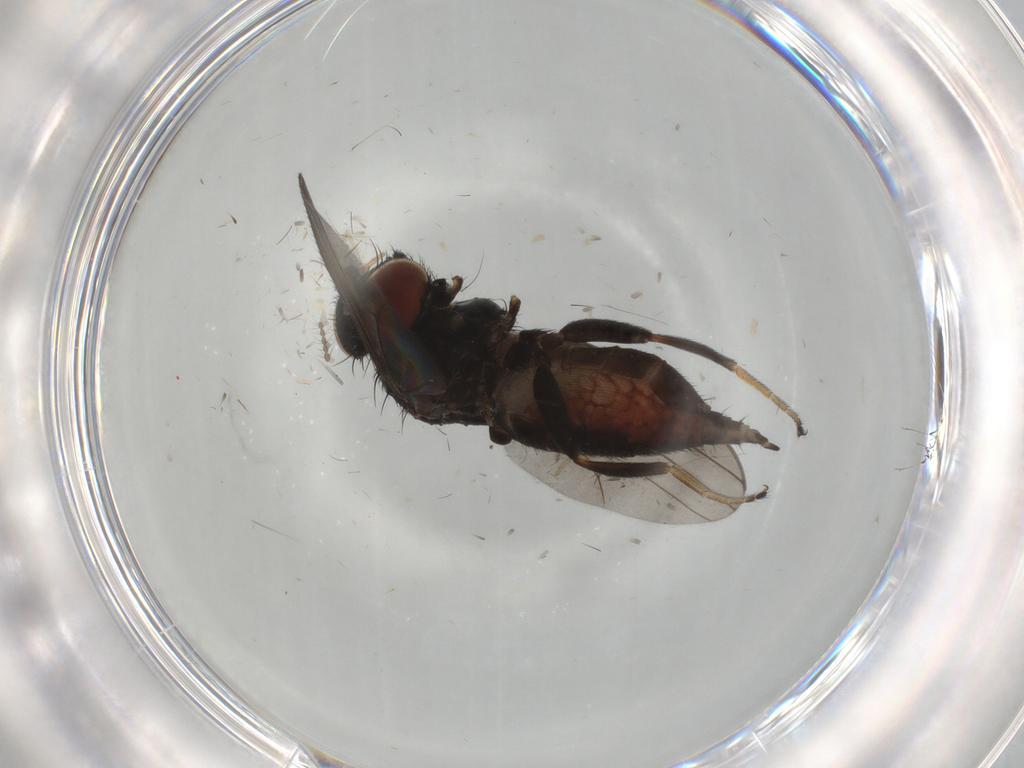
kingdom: Animalia
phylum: Arthropoda
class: Insecta
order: Diptera
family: Milichiidae
